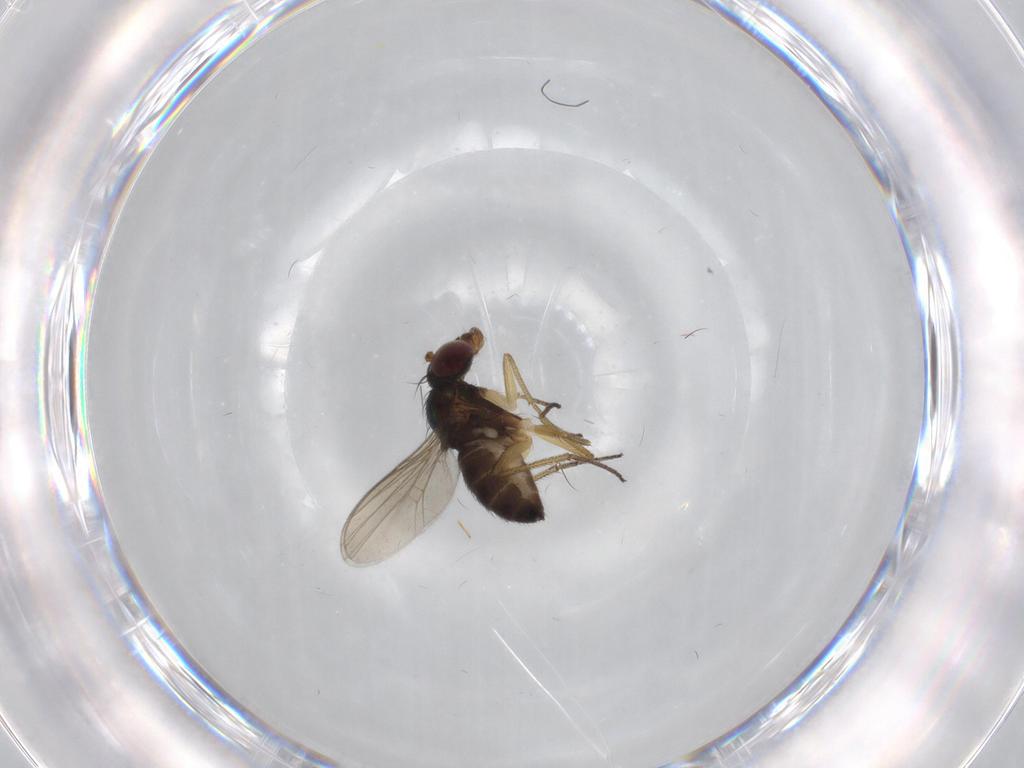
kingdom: Animalia
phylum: Arthropoda
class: Insecta
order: Diptera
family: Dolichopodidae
